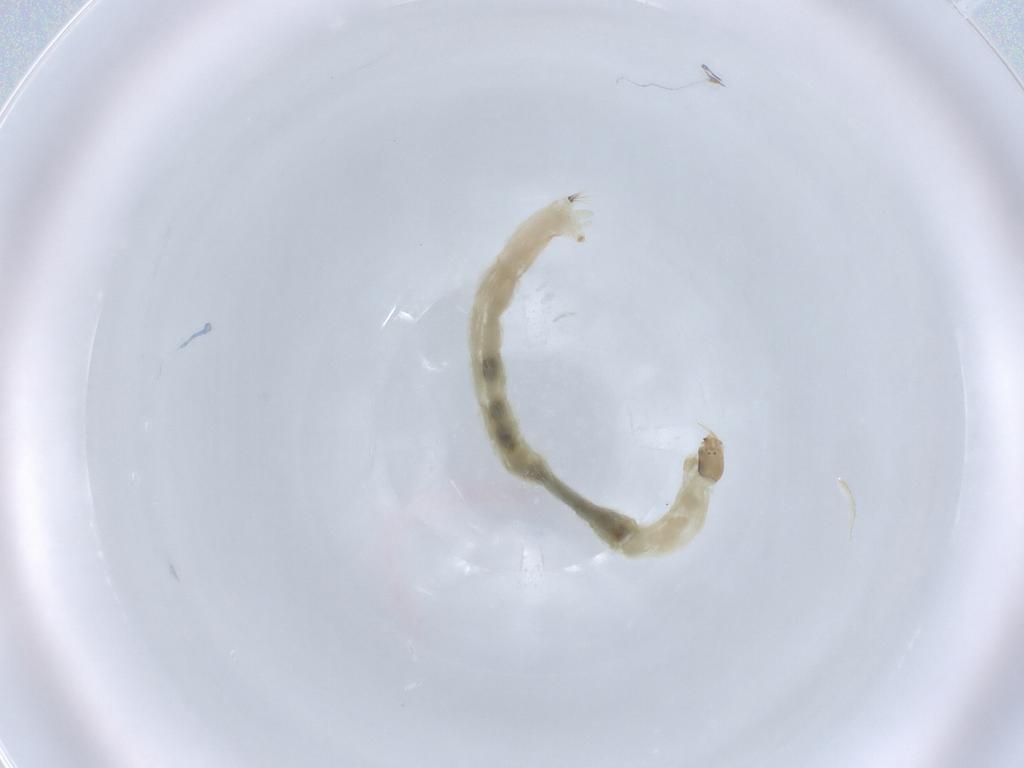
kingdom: Animalia
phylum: Arthropoda
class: Insecta
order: Diptera
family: Chironomidae
